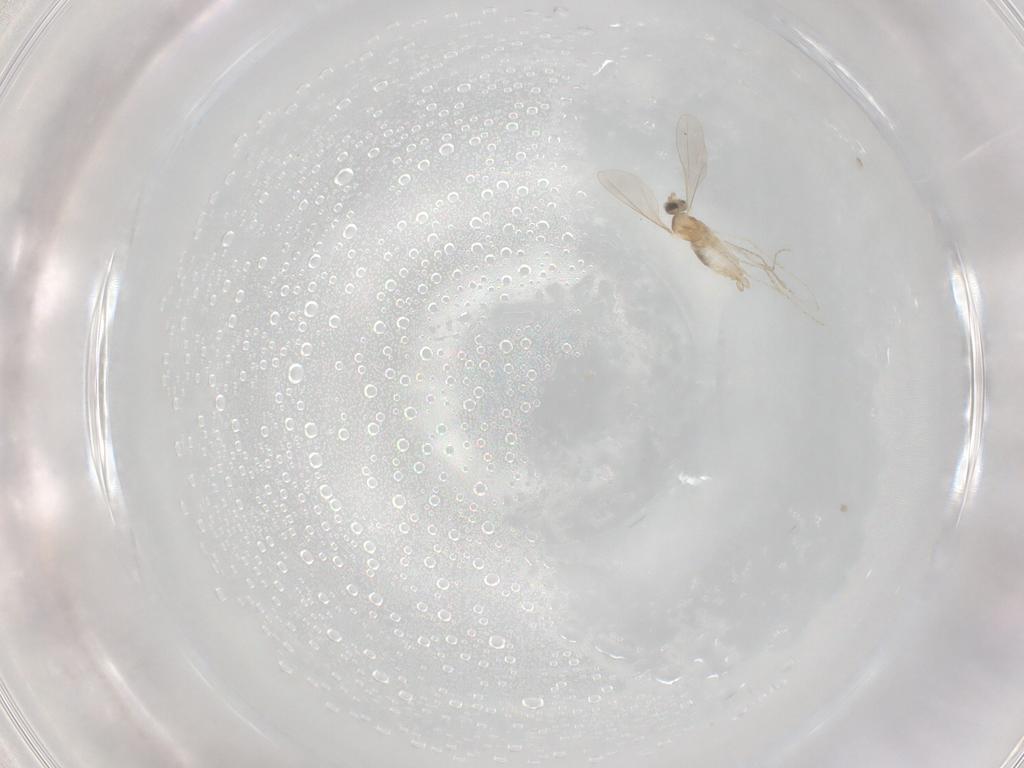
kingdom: Animalia
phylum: Arthropoda
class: Insecta
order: Diptera
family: Cecidomyiidae
